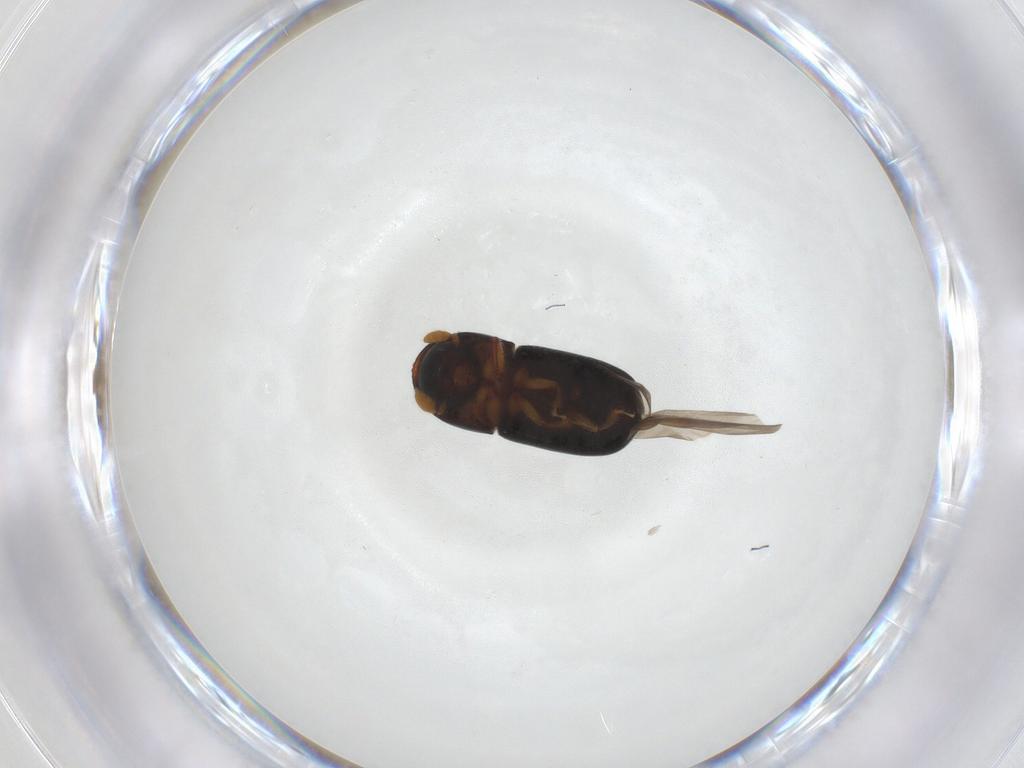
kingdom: Animalia
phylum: Arthropoda
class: Insecta
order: Coleoptera
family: Curculionidae
